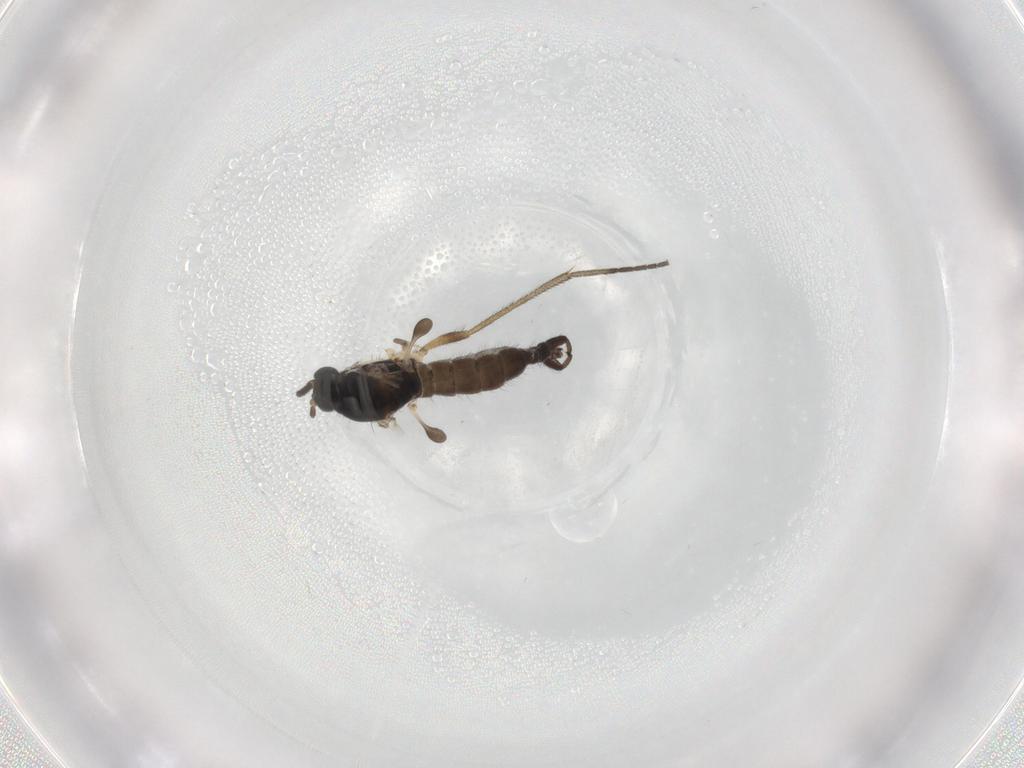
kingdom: Animalia
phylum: Arthropoda
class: Insecta
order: Diptera
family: Sciaridae
